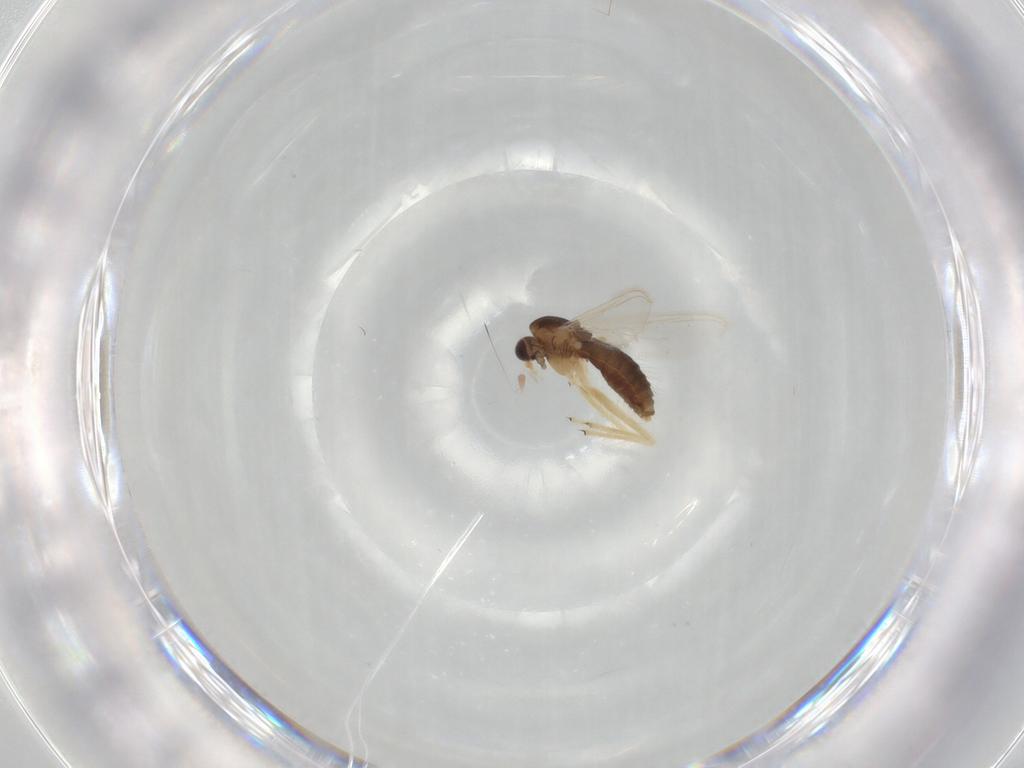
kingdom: Animalia
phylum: Arthropoda
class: Insecta
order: Diptera
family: Chironomidae
